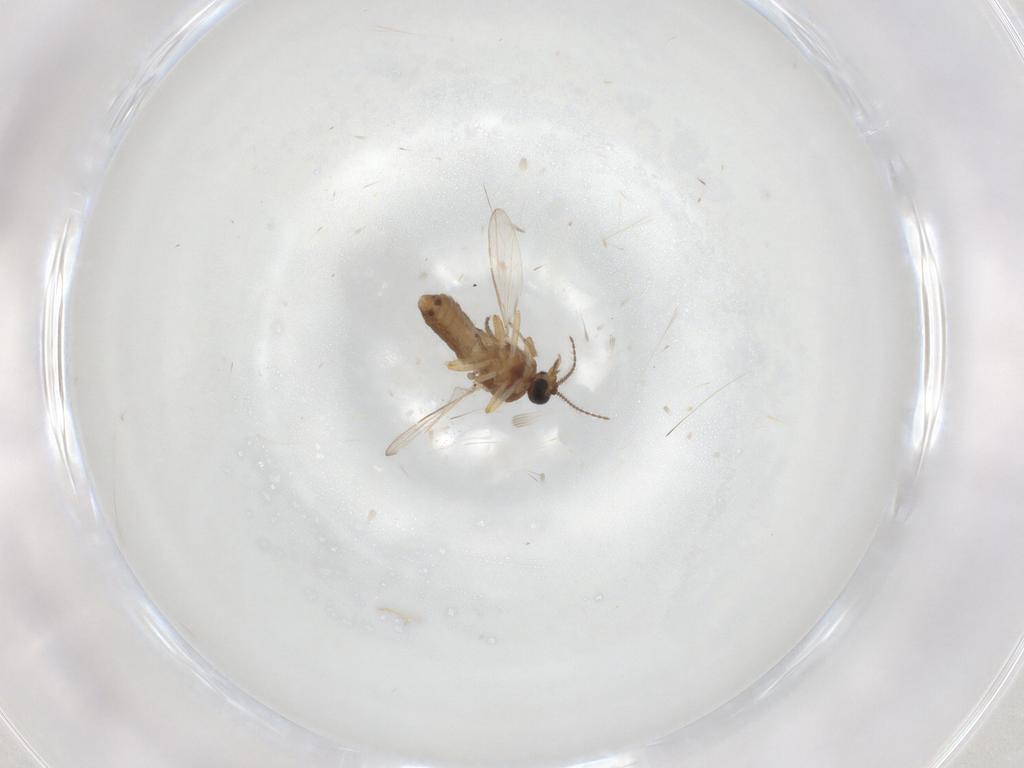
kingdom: Animalia
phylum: Arthropoda
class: Insecta
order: Diptera
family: Ceratopogonidae
